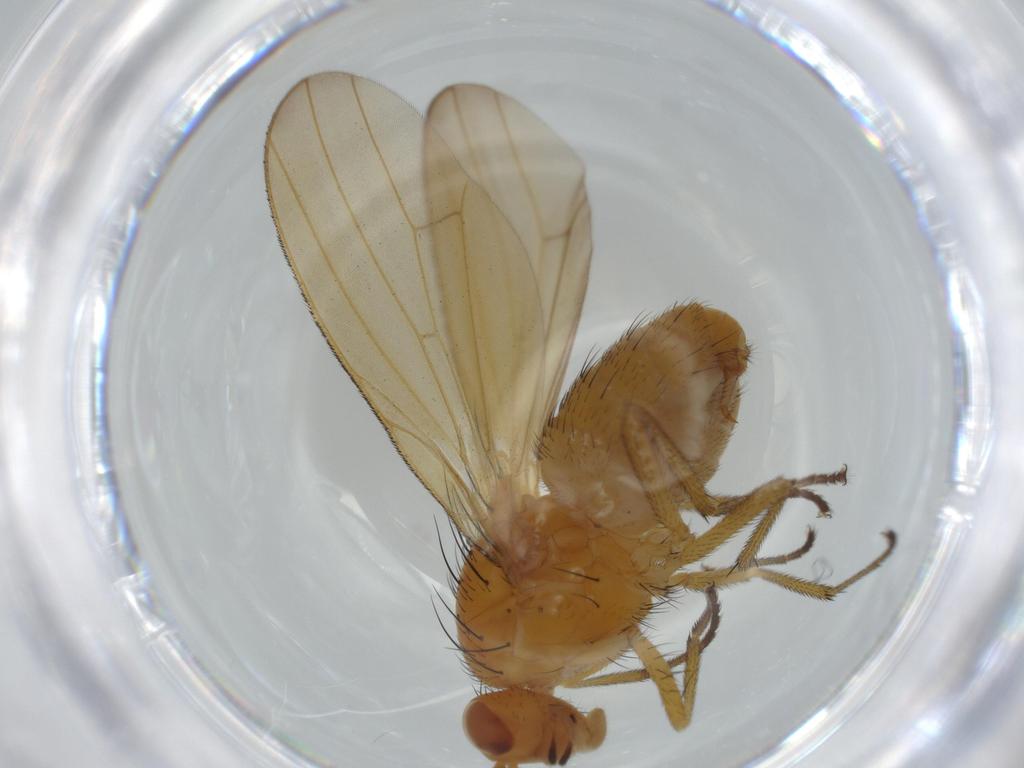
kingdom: Animalia
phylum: Arthropoda
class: Insecta
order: Diptera
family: Lauxaniidae
